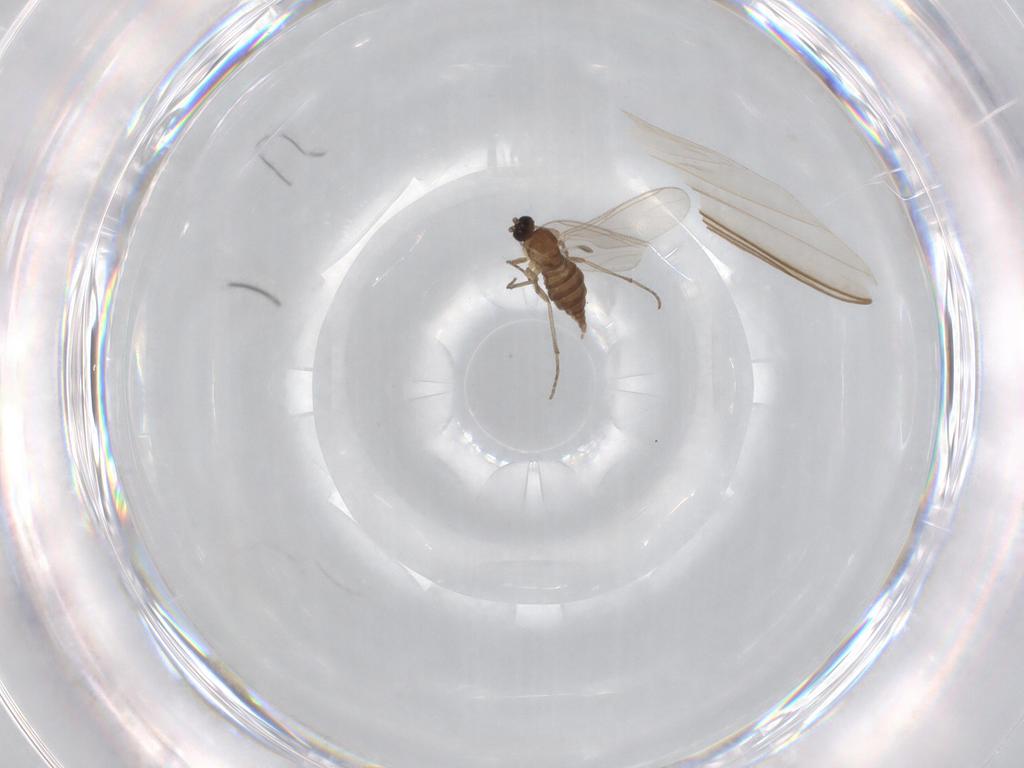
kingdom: Animalia
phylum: Arthropoda
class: Insecta
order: Diptera
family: Sciaridae
